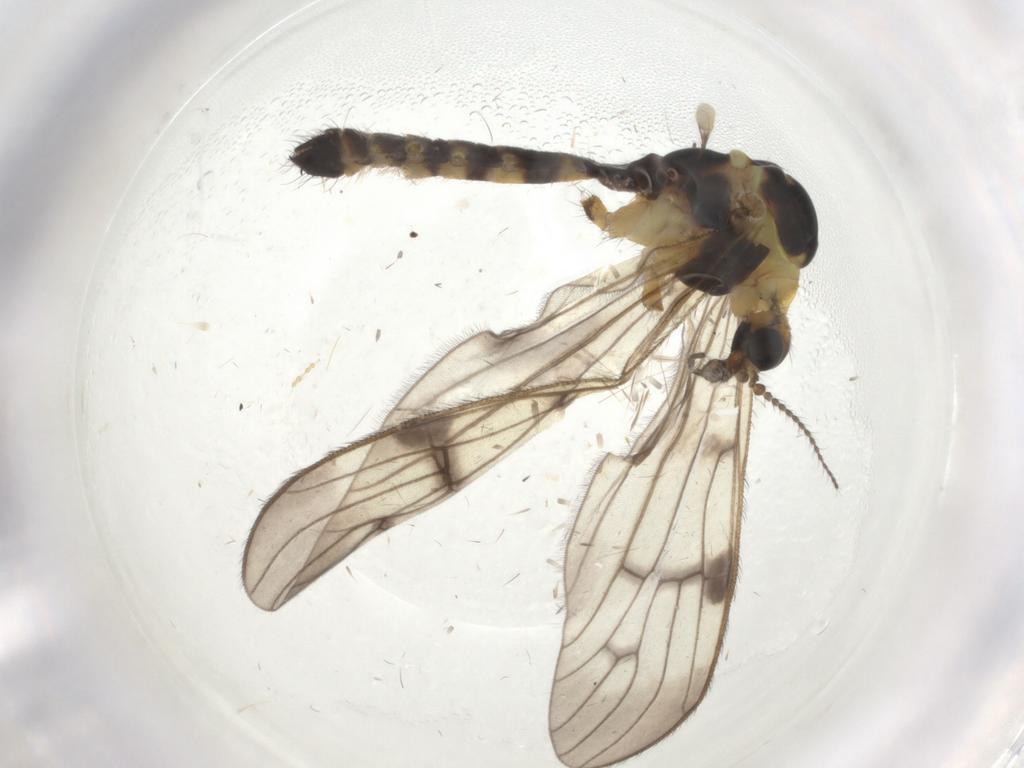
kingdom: Animalia
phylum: Arthropoda
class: Insecta
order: Diptera
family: Limoniidae
